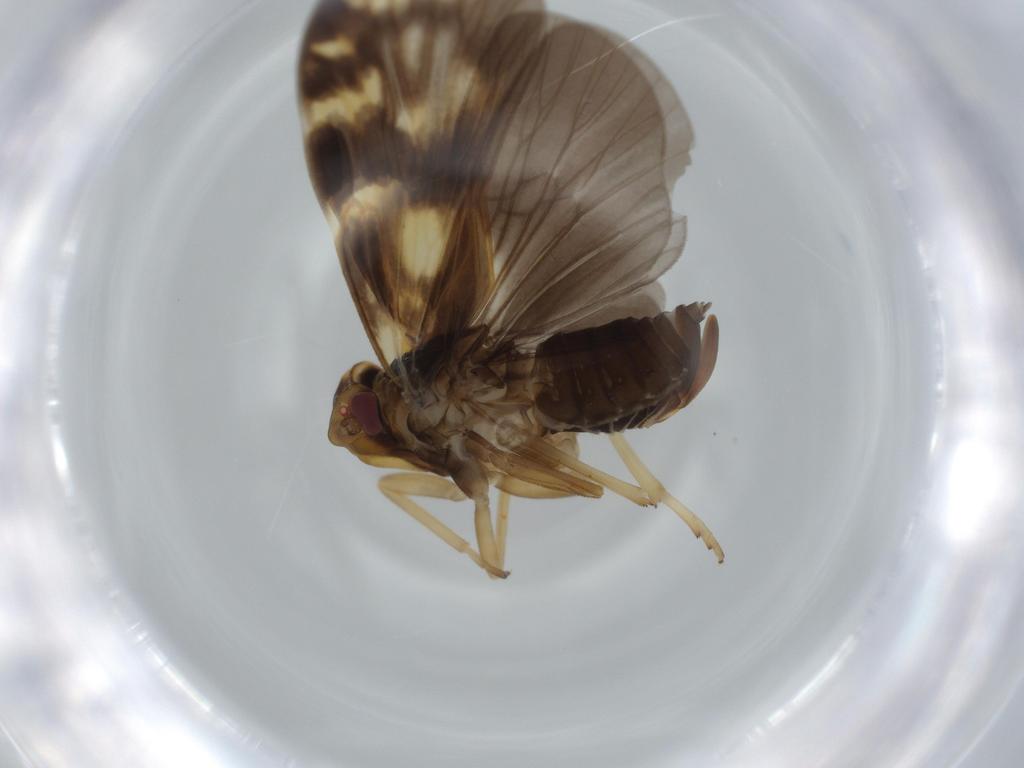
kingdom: Animalia
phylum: Arthropoda
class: Insecta
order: Hemiptera
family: Cixiidae
